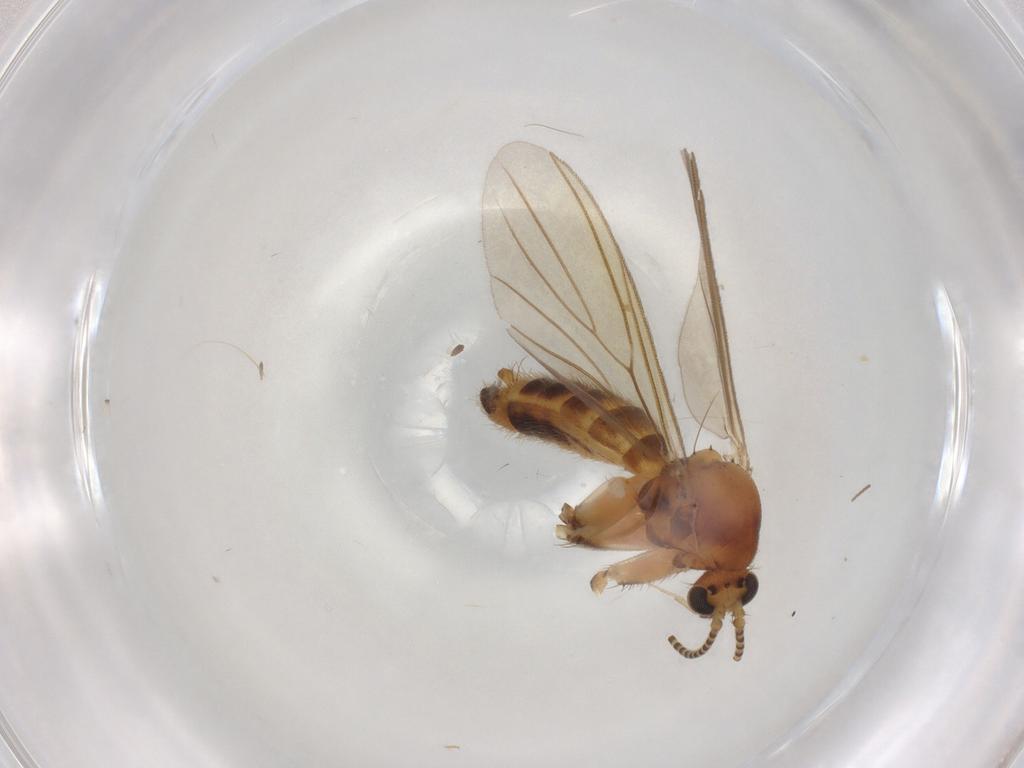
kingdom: Animalia
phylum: Arthropoda
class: Insecta
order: Diptera
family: Mycetophilidae
